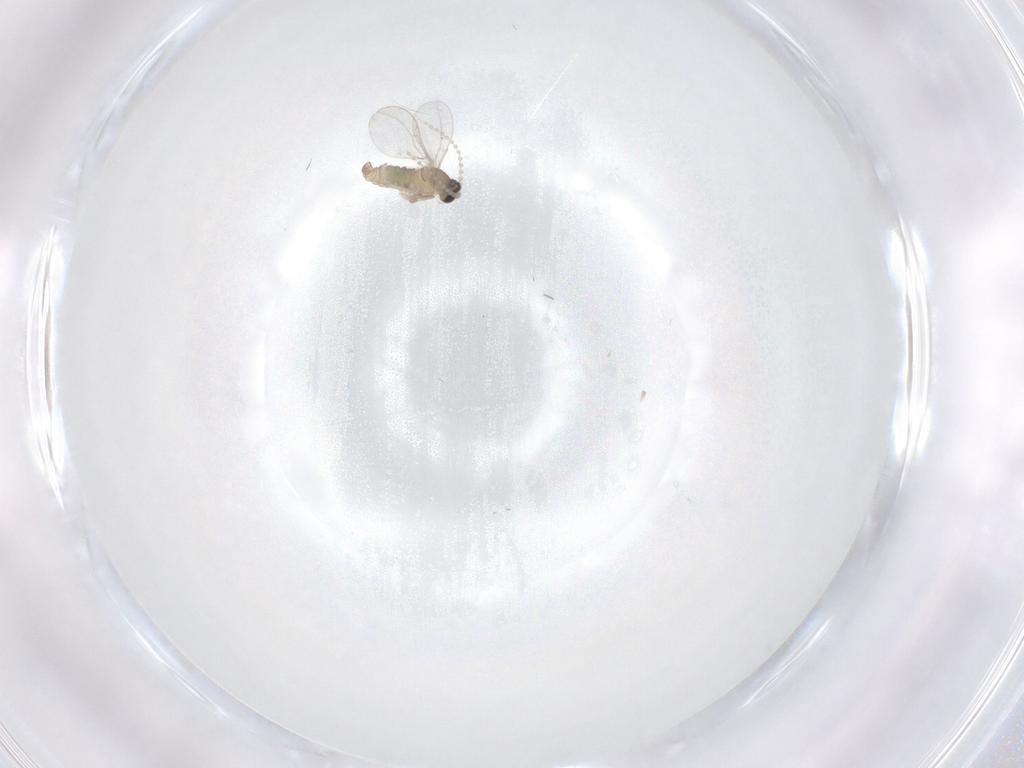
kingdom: Animalia
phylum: Arthropoda
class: Insecta
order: Diptera
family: Cecidomyiidae
